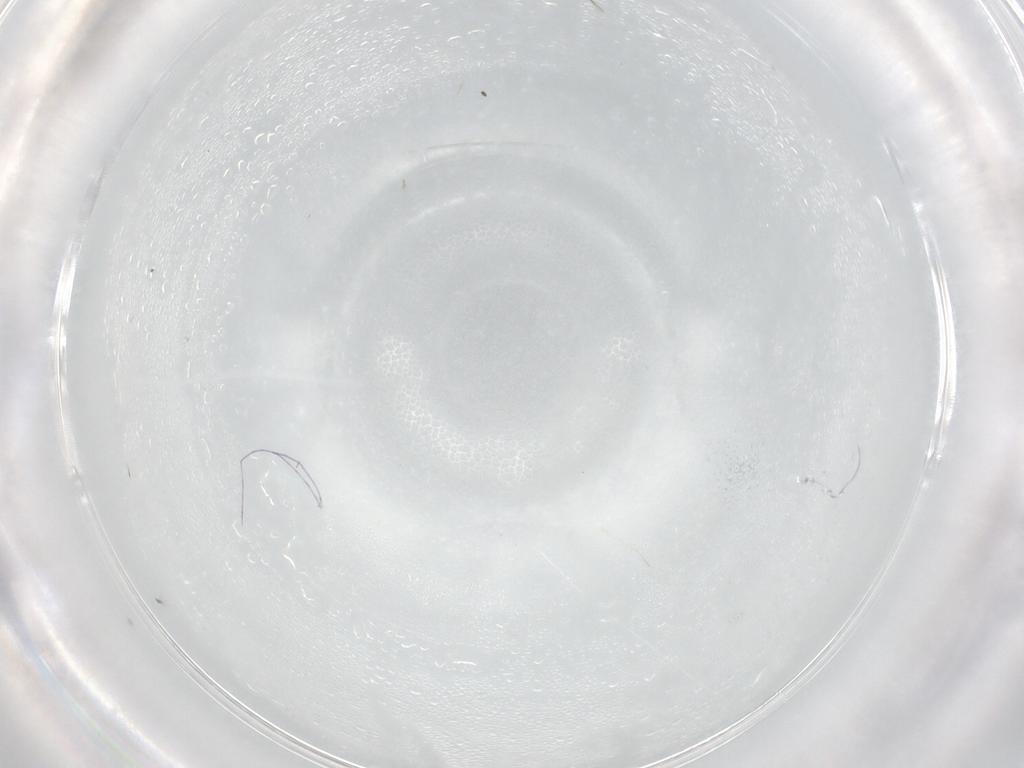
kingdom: Animalia
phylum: Arthropoda
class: Insecta
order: Hymenoptera
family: Bethylidae
